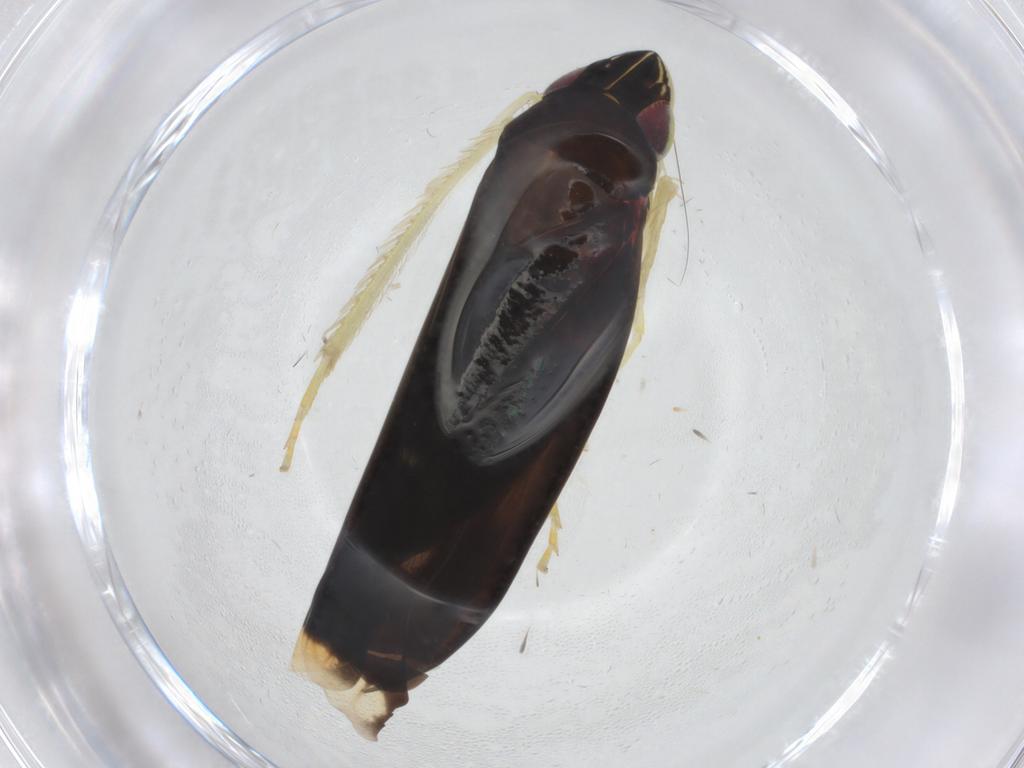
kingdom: Animalia
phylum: Arthropoda
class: Insecta
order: Hemiptera
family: Cicadellidae
